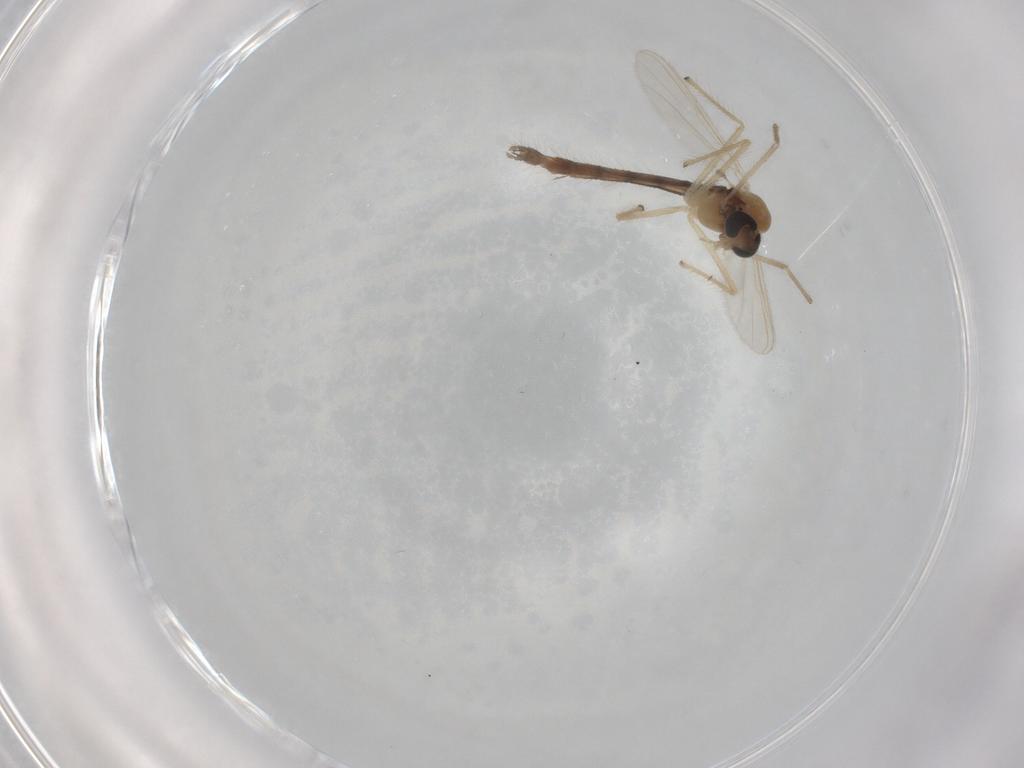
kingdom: Animalia
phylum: Arthropoda
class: Insecta
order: Diptera
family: Chironomidae
